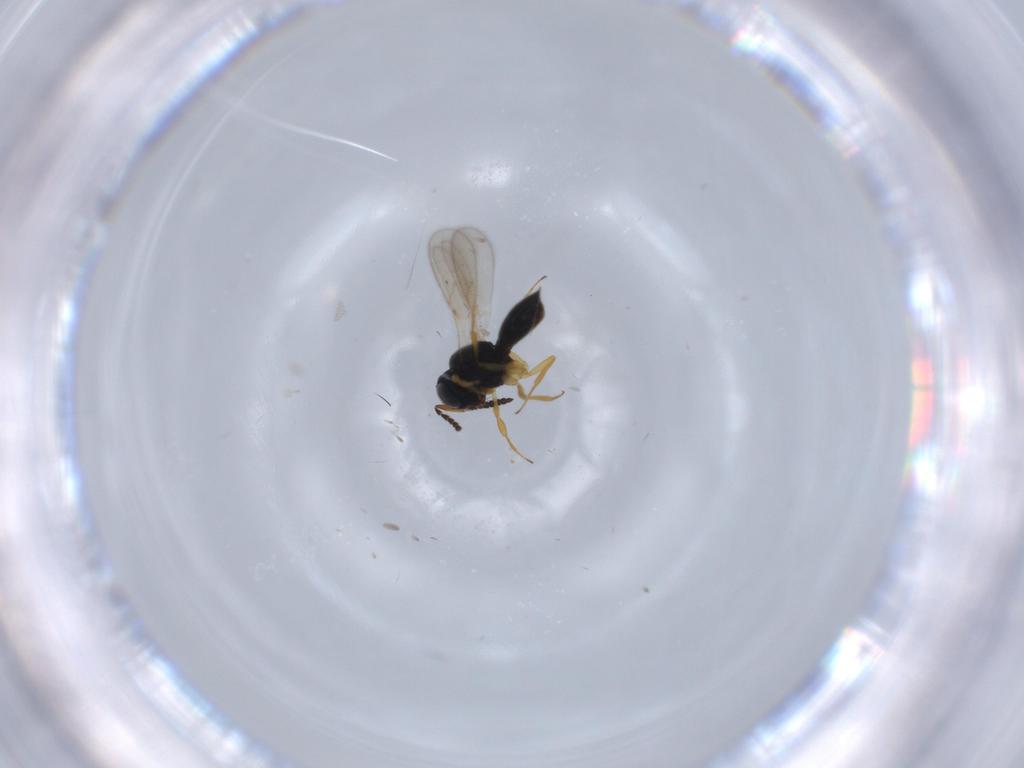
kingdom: Animalia
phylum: Arthropoda
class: Insecta
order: Hymenoptera
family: Scelionidae
